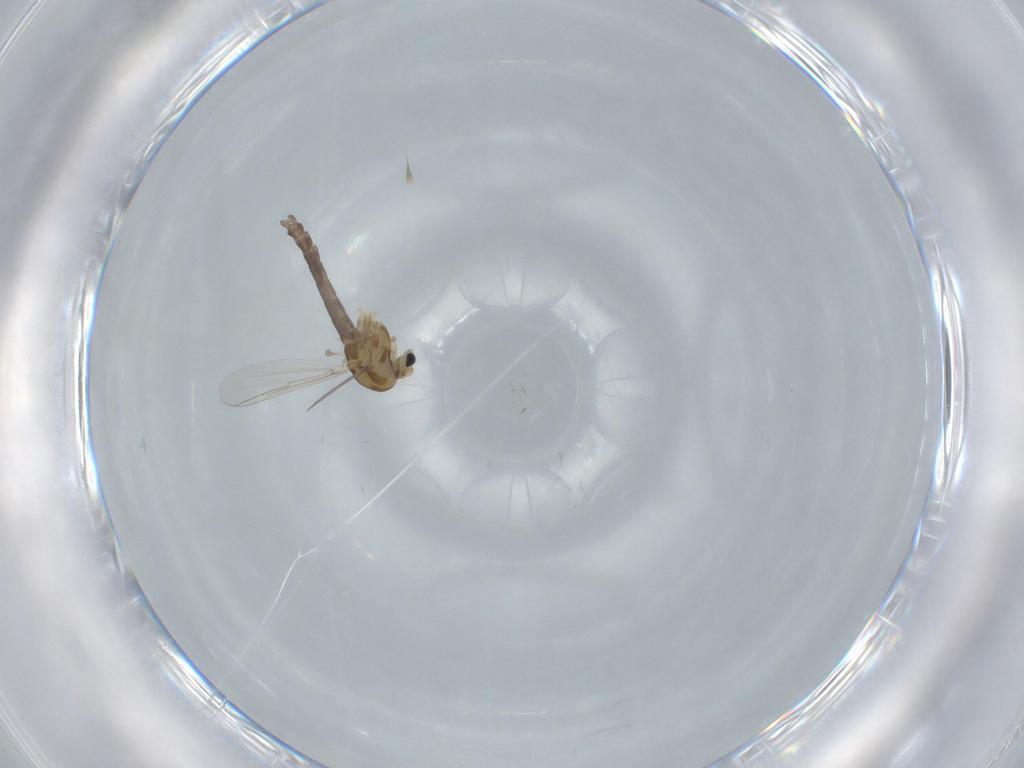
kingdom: Animalia
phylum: Arthropoda
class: Insecta
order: Diptera
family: Chironomidae
